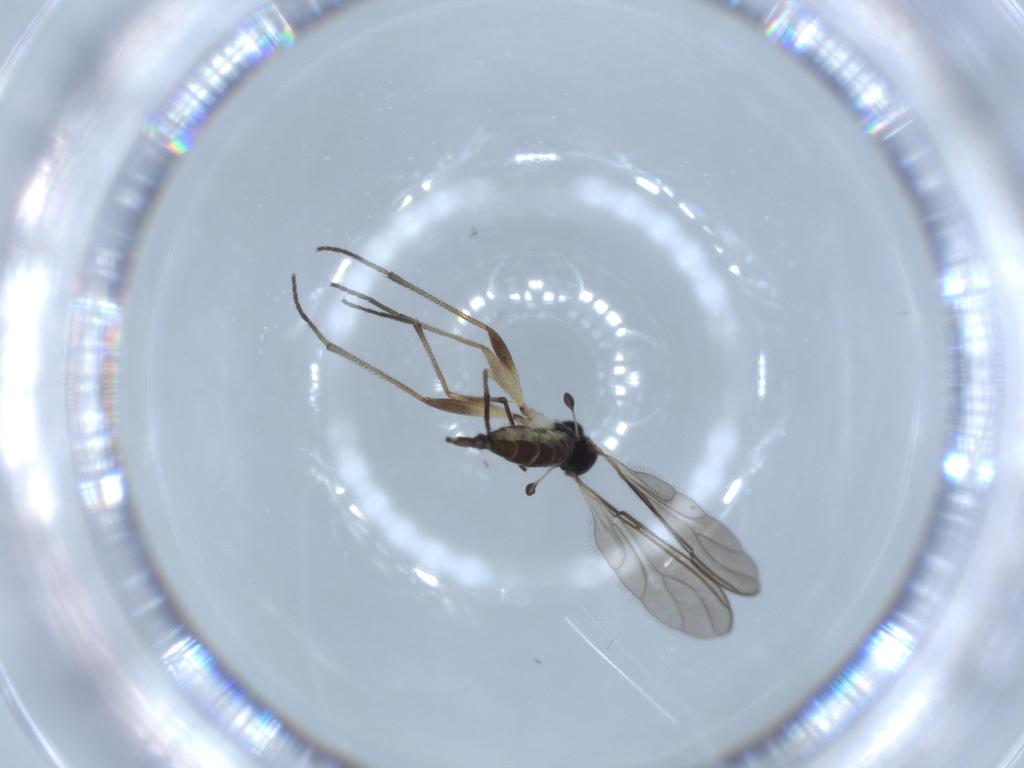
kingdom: Animalia
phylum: Arthropoda
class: Insecta
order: Diptera
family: Sciaridae
